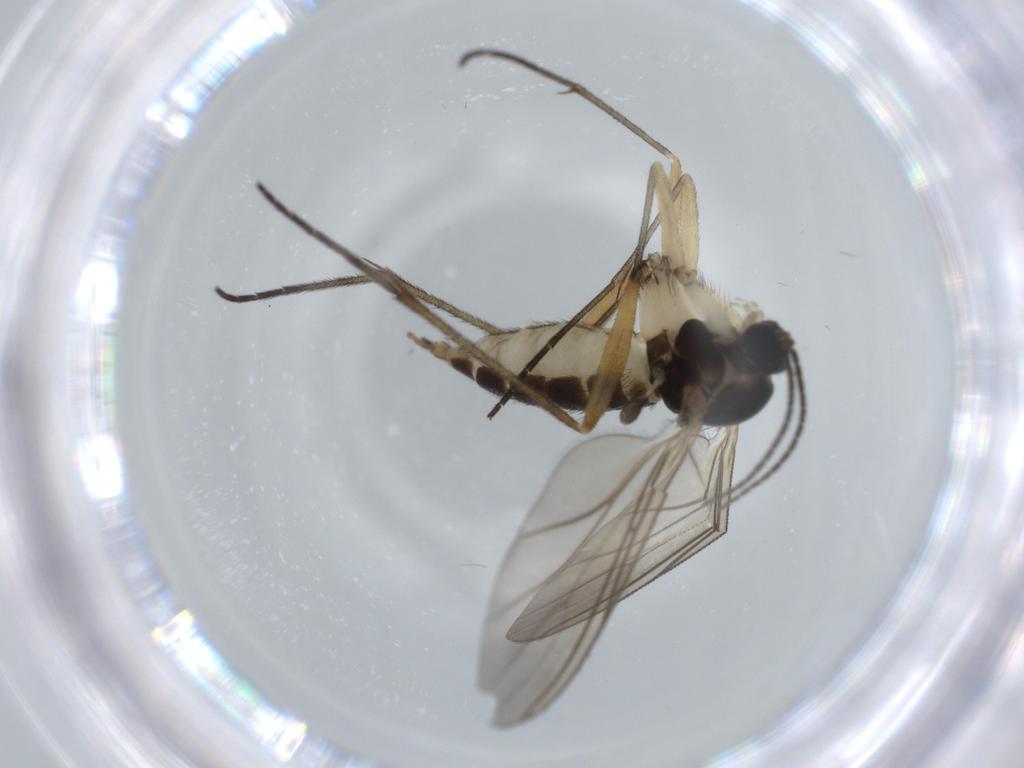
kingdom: Animalia
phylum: Arthropoda
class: Insecta
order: Diptera
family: Sciaridae
